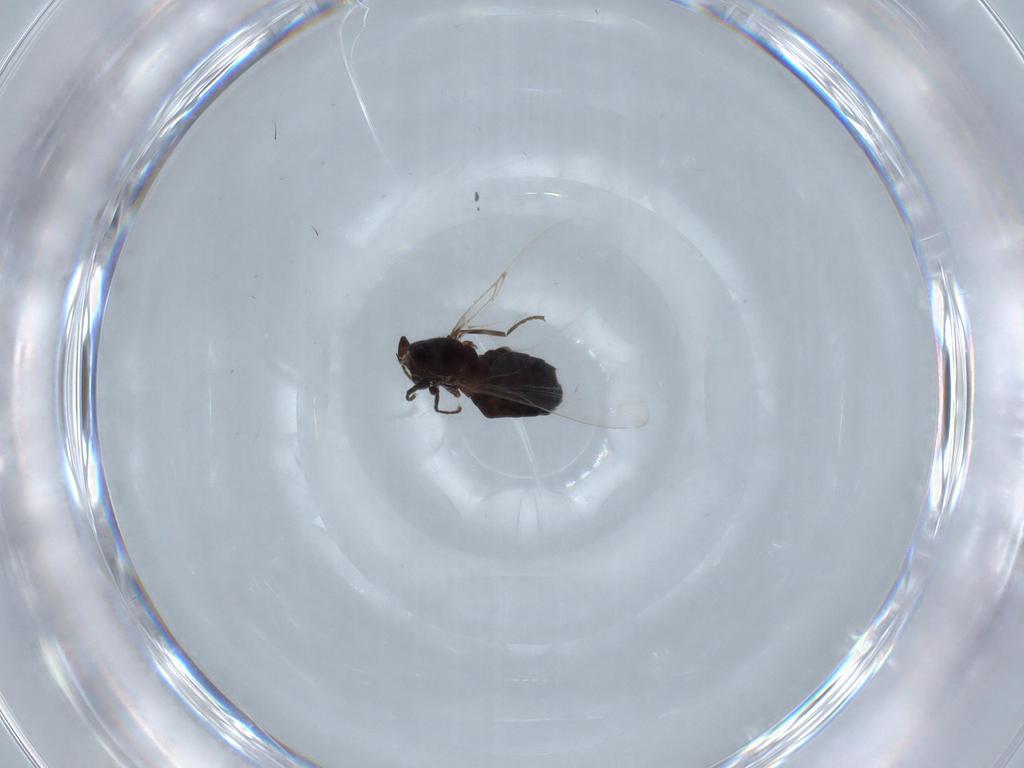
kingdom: Animalia
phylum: Arthropoda
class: Insecta
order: Diptera
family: Scatopsidae
